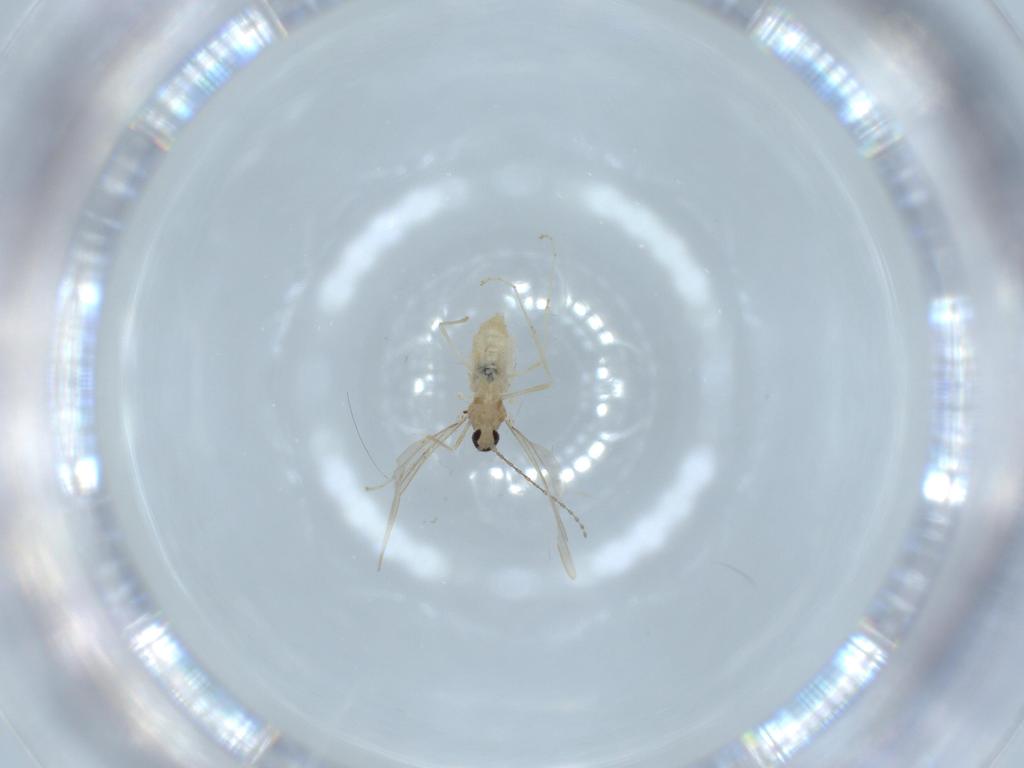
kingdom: Animalia
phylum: Arthropoda
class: Insecta
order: Diptera
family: Cecidomyiidae
